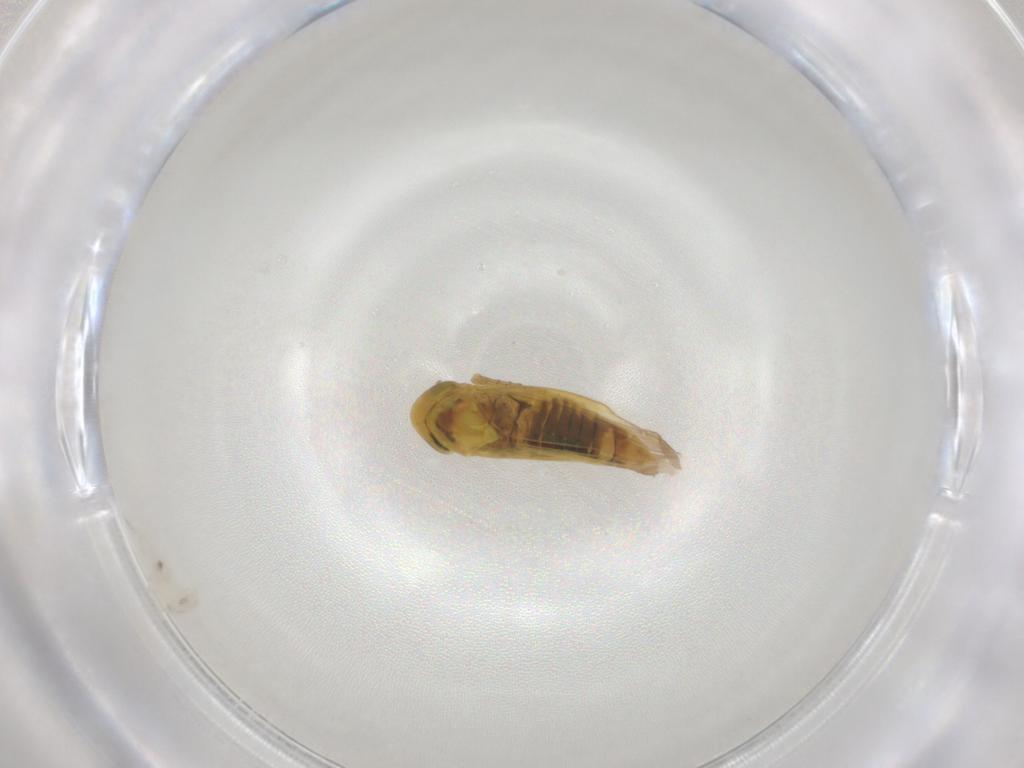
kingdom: Animalia
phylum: Arthropoda
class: Insecta
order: Hemiptera
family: Cicadellidae
